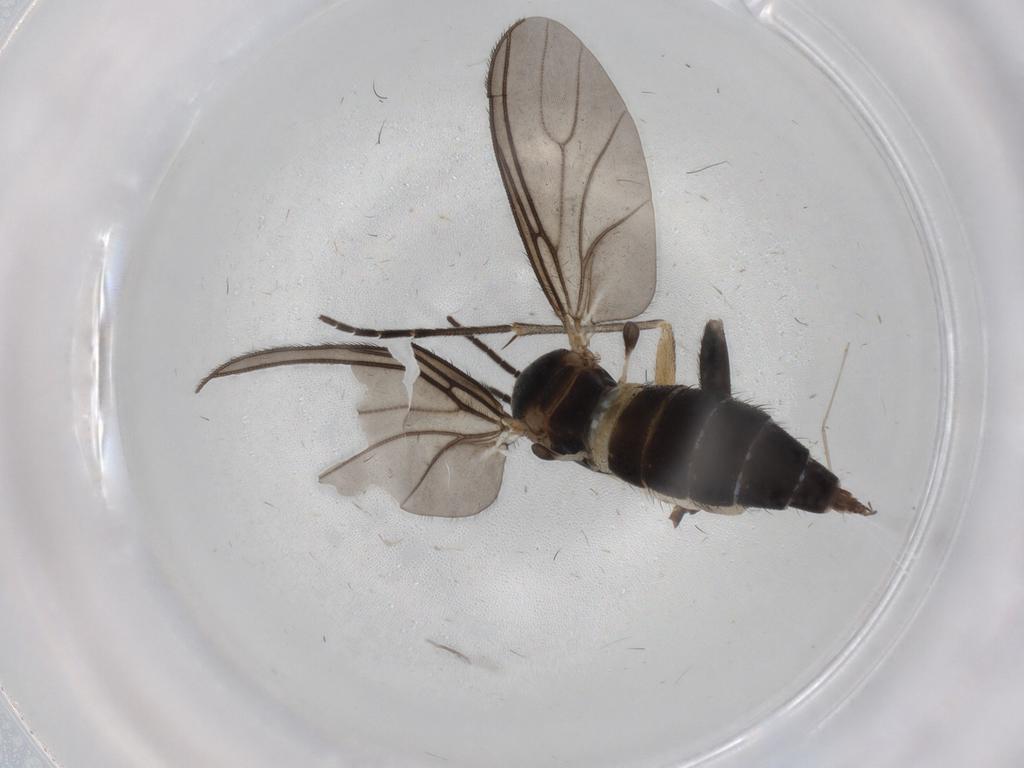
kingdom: Animalia
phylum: Arthropoda
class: Insecta
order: Diptera
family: Sciaridae
